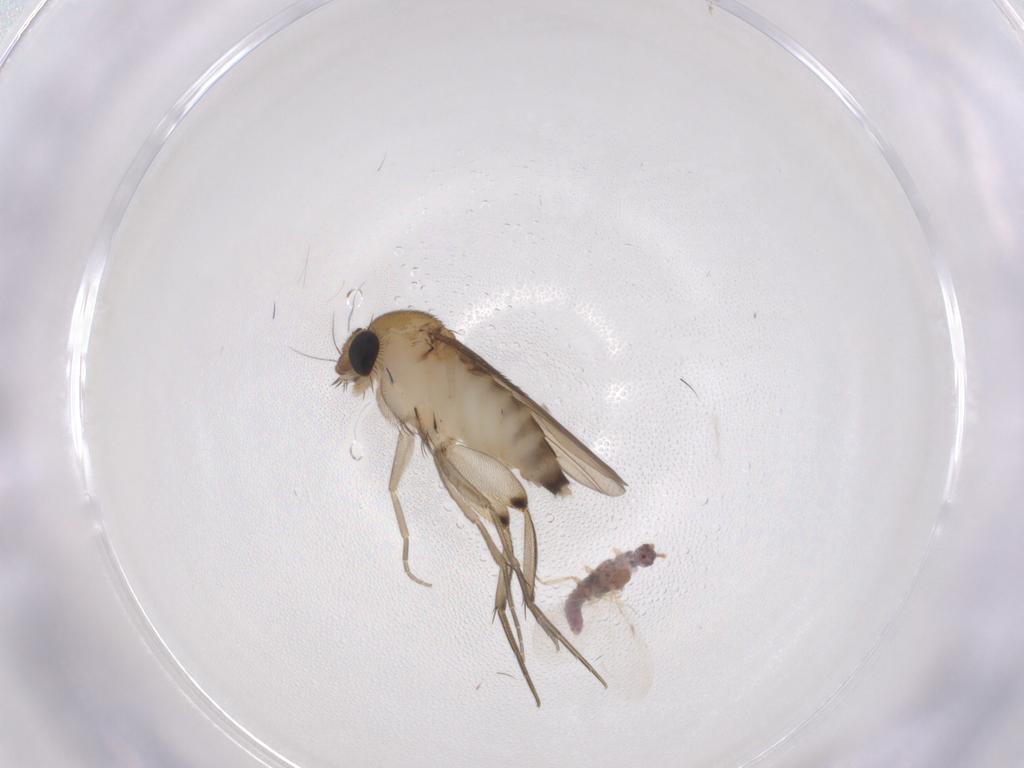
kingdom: Animalia
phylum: Arthropoda
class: Insecta
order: Diptera
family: Phoridae
